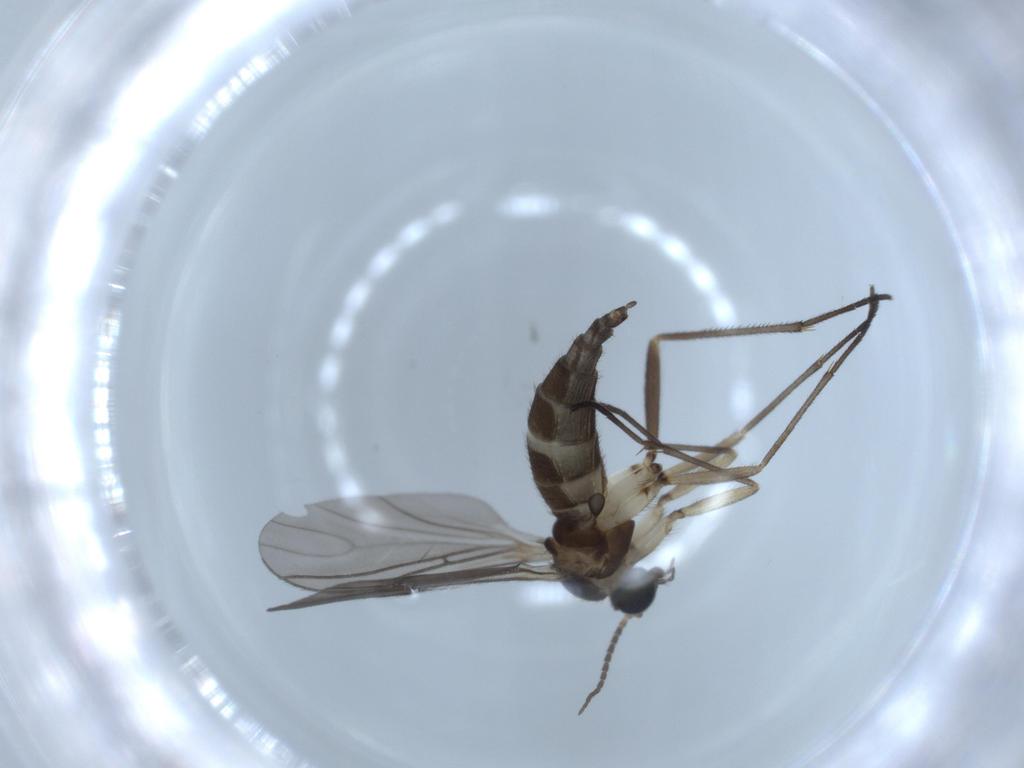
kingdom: Animalia
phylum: Arthropoda
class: Insecta
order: Diptera
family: Sciaridae
